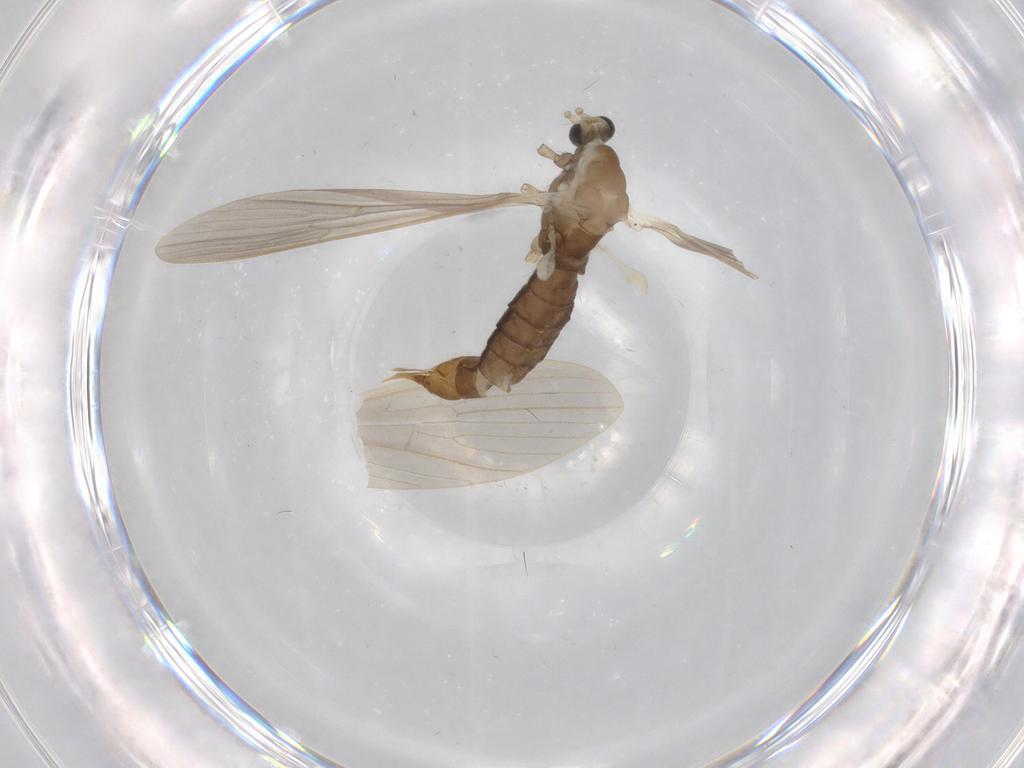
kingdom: Animalia
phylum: Arthropoda
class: Insecta
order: Diptera
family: Limoniidae
